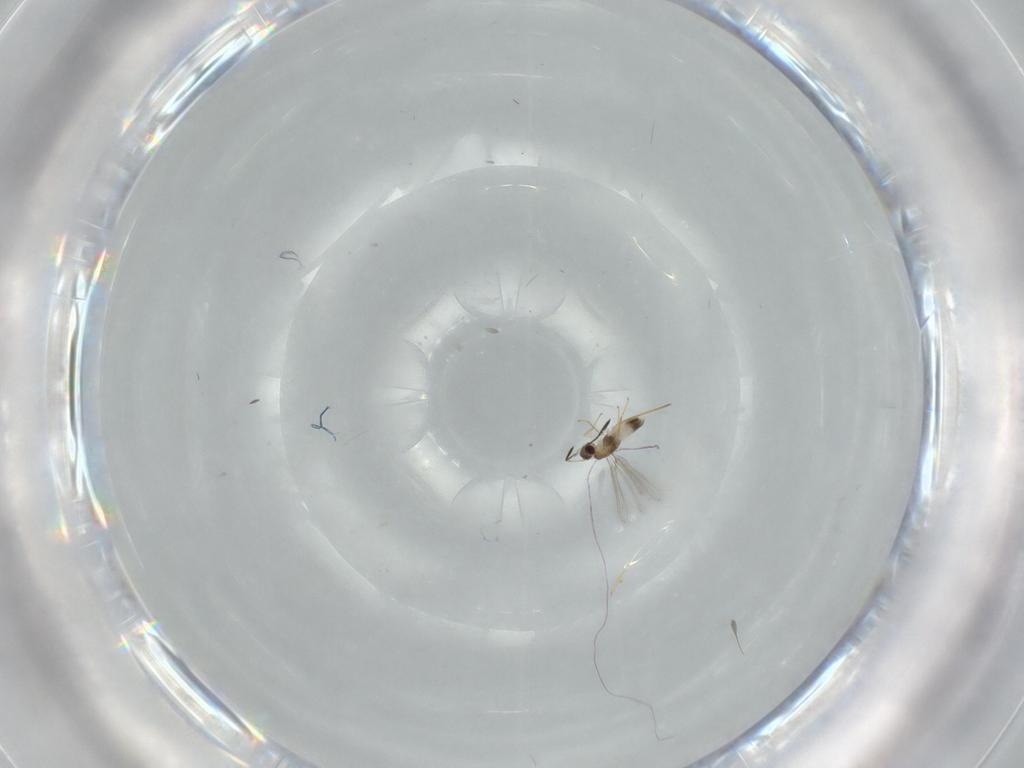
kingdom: Animalia
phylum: Arthropoda
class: Insecta
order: Hymenoptera
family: Mymaridae
